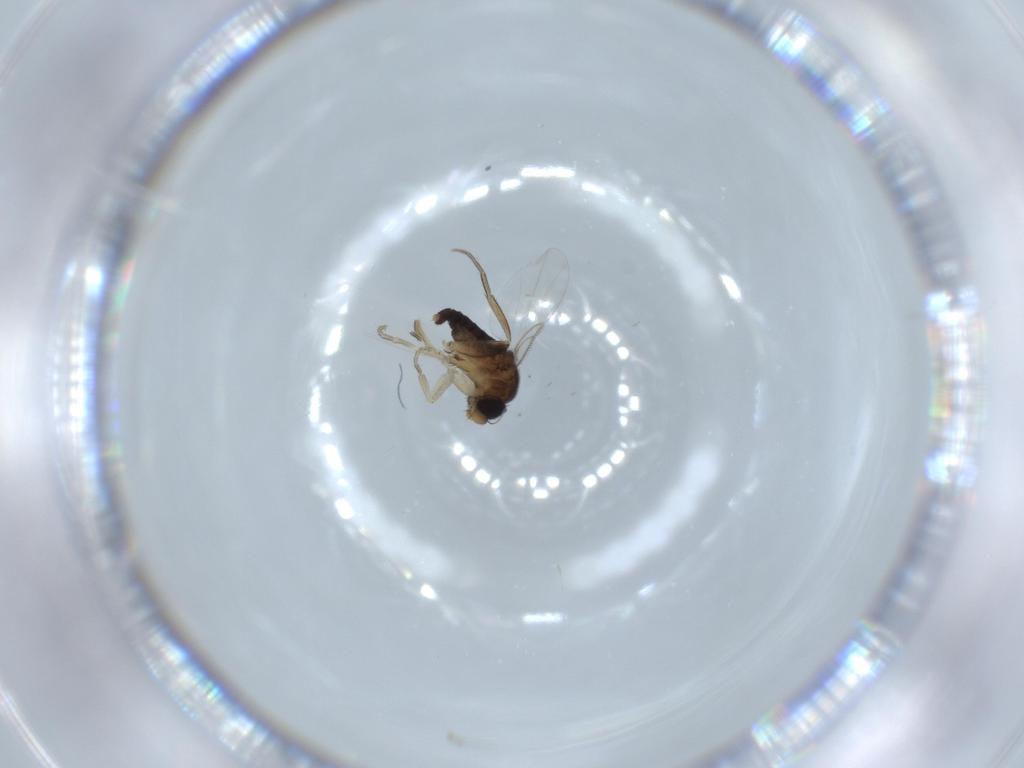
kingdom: Animalia
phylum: Arthropoda
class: Insecta
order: Diptera
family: Phoridae
